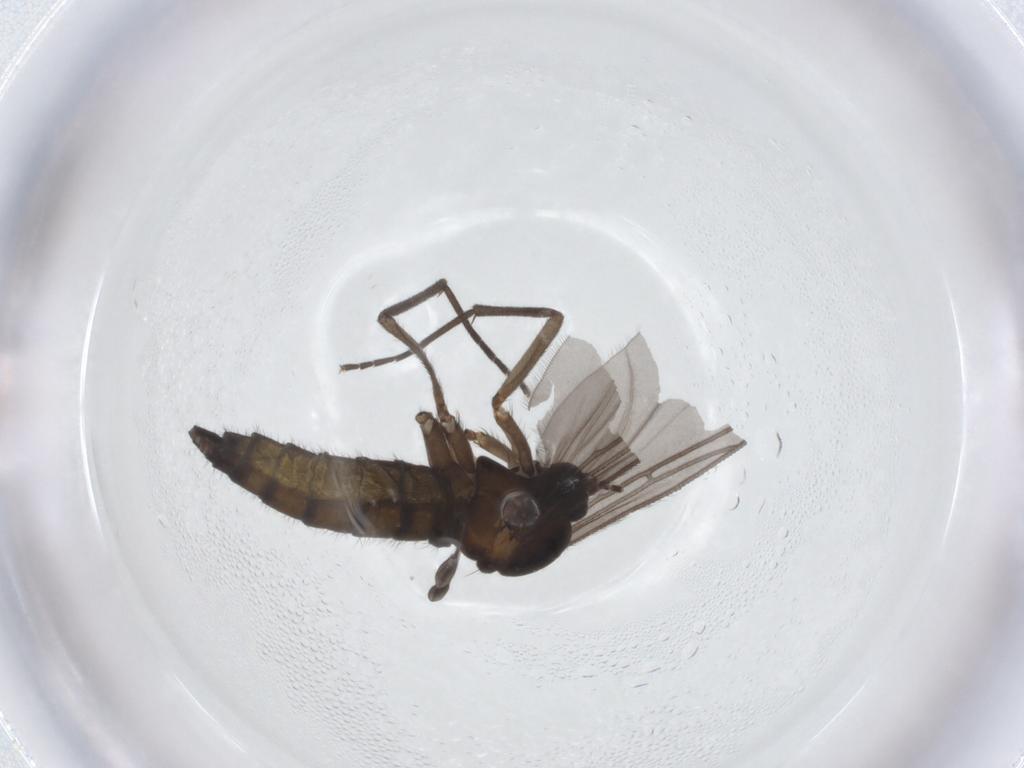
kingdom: Animalia
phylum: Arthropoda
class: Insecta
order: Diptera
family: Sciaridae
